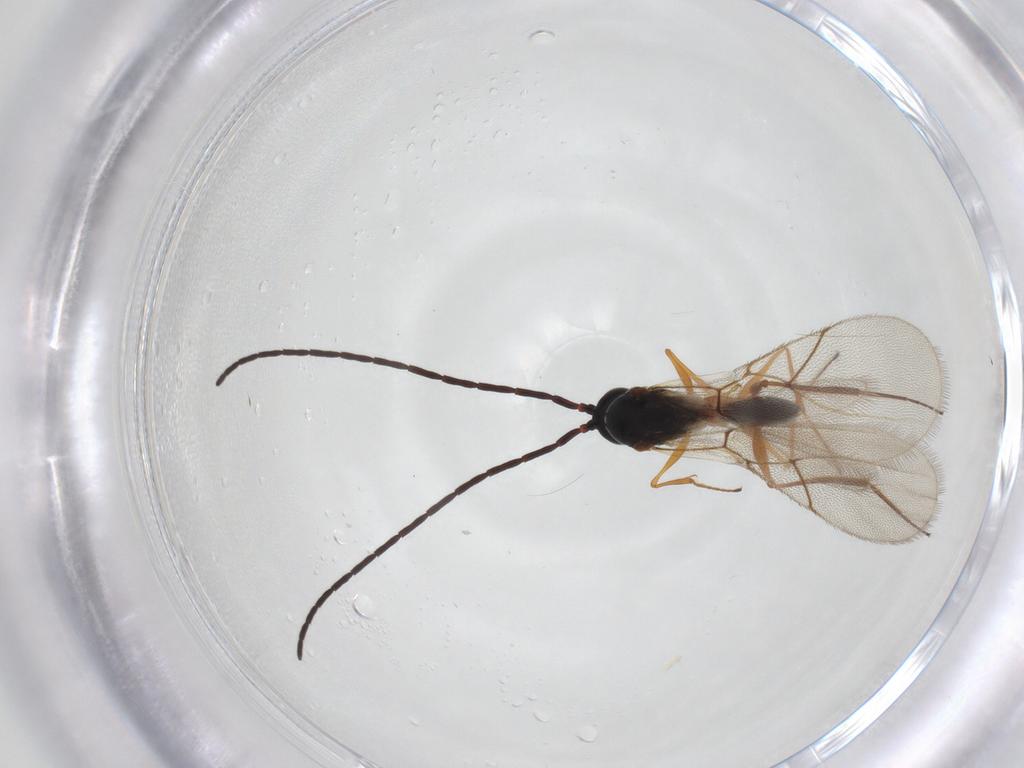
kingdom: Animalia
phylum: Arthropoda
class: Insecta
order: Hymenoptera
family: Figitidae
